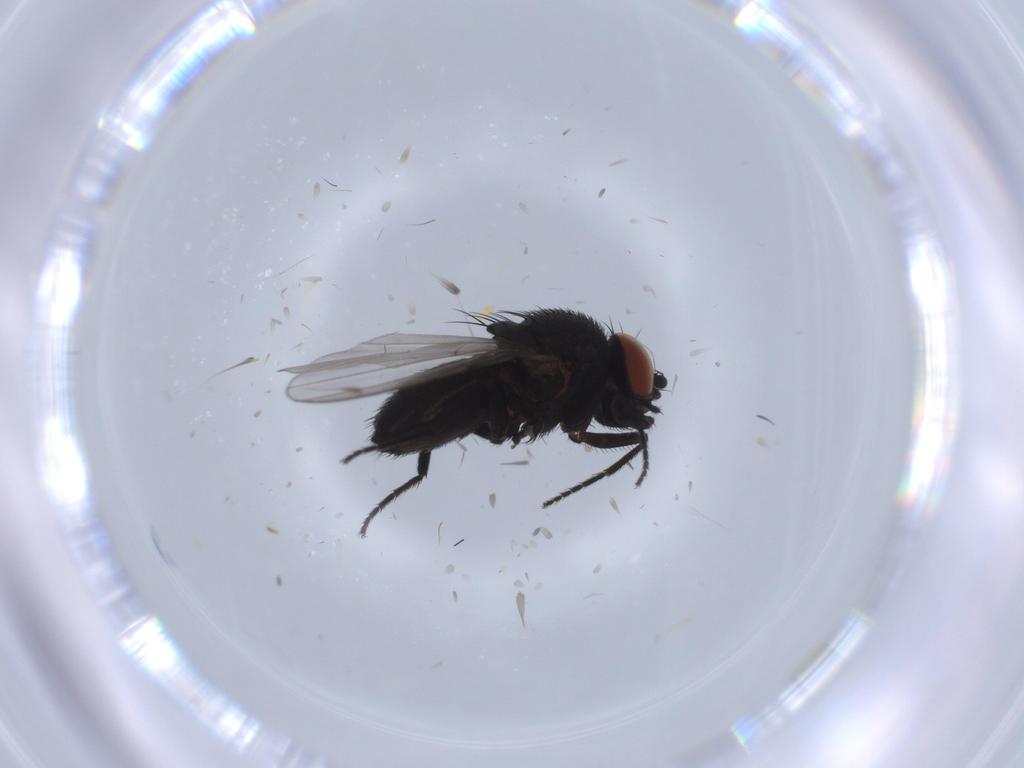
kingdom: Animalia
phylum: Arthropoda
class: Insecta
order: Diptera
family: Milichiidae
